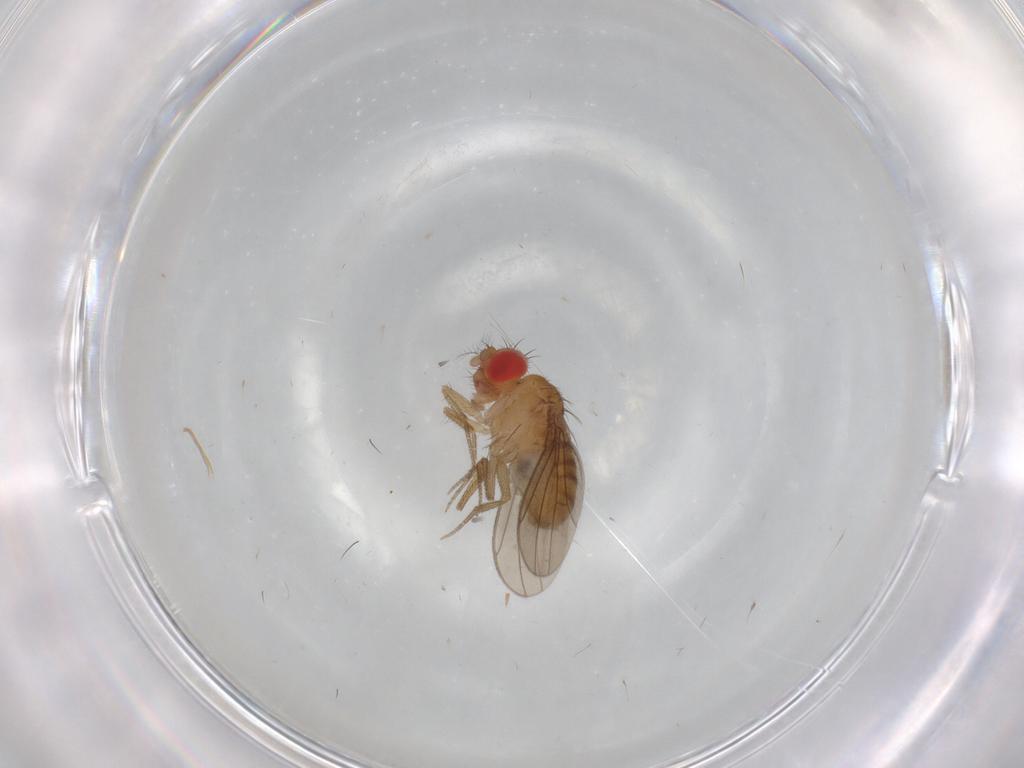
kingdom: Animalia
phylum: Arthropoda
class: Insecta
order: Diptera
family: Drosophilidae
